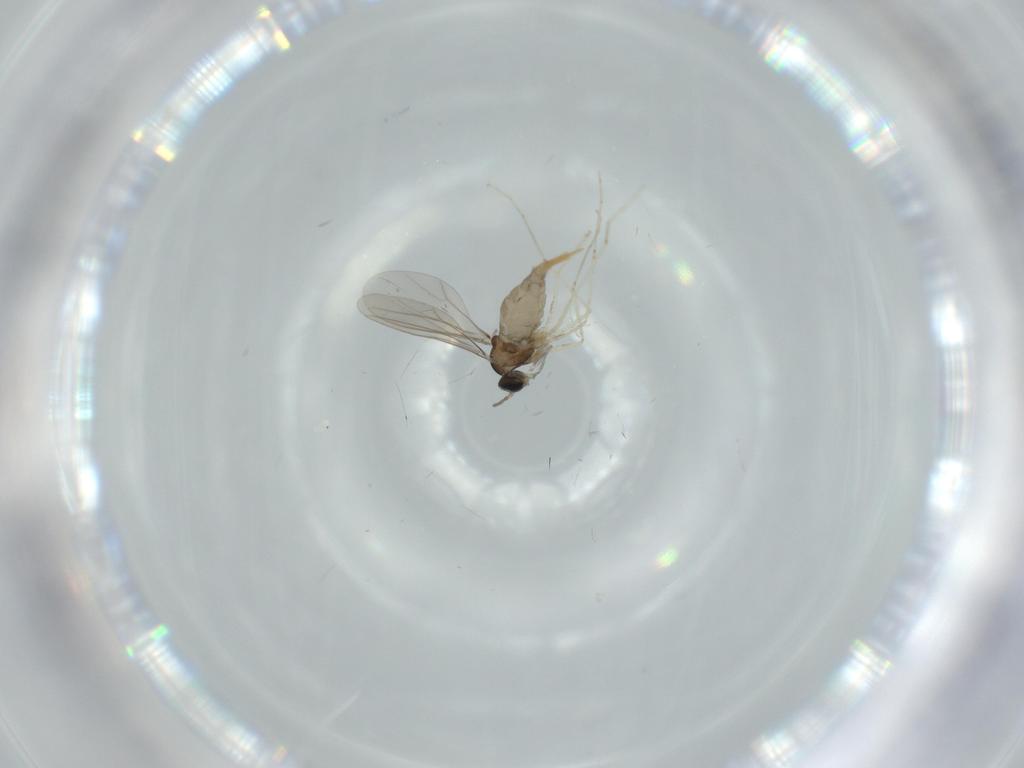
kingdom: Animalia
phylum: Arthropoda
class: Insecta
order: Diptera
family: Cecidomyiidae
